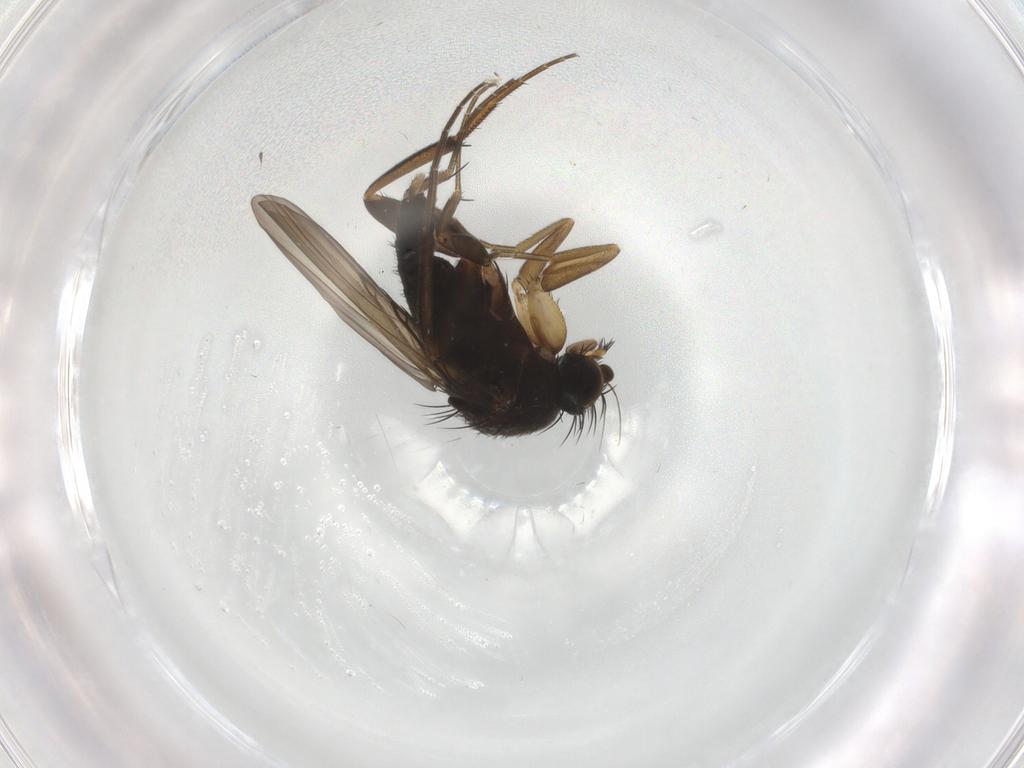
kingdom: Animalia
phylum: Arthropoda
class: Insecta
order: Diptera
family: Phoridae
